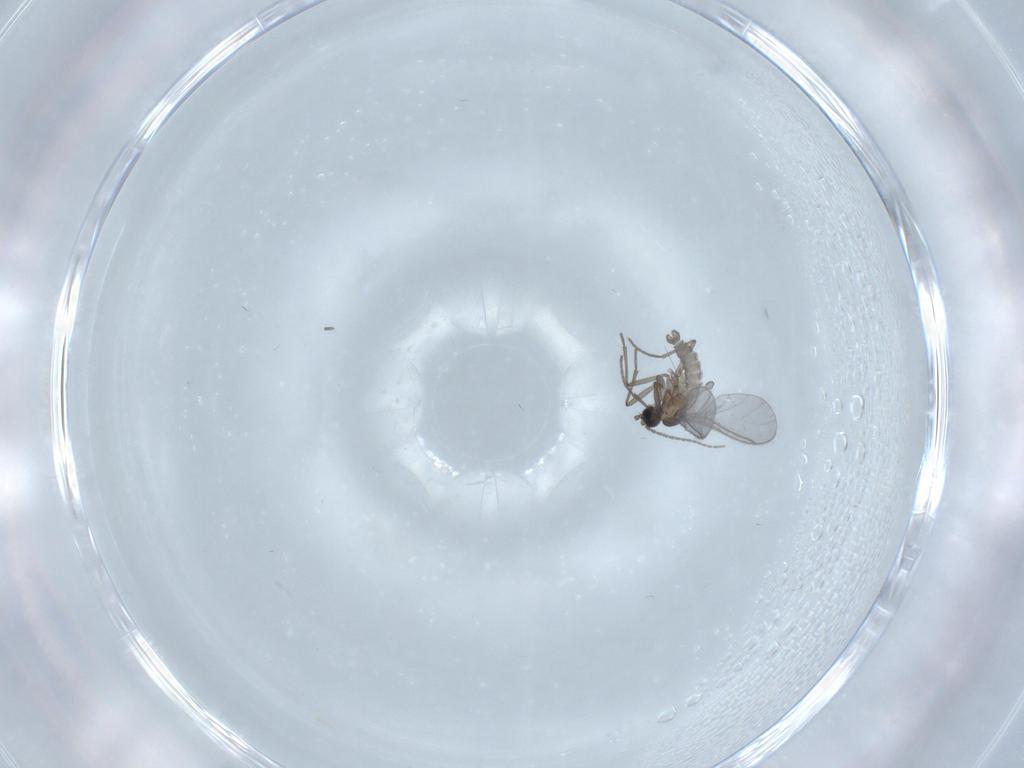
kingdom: Animalia
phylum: Arthropoda
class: Insecta
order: Diptera
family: Sciaridae
